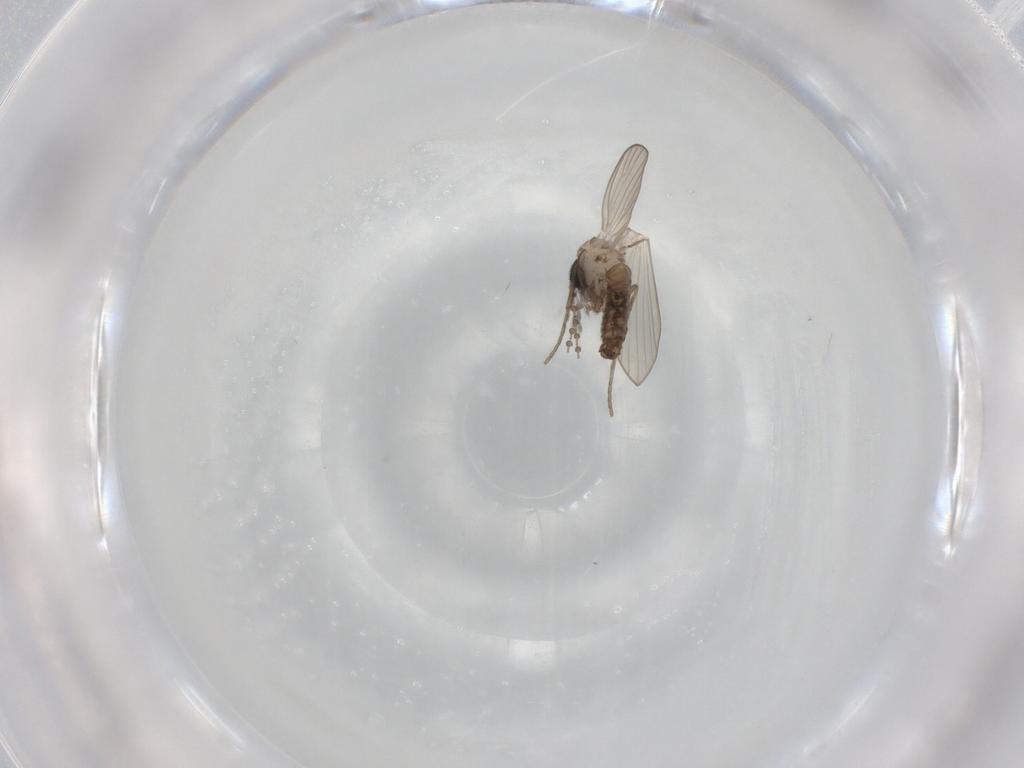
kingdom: Animalia
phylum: Arthropoda
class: Insecta
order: Diptera
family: Psychodidae
